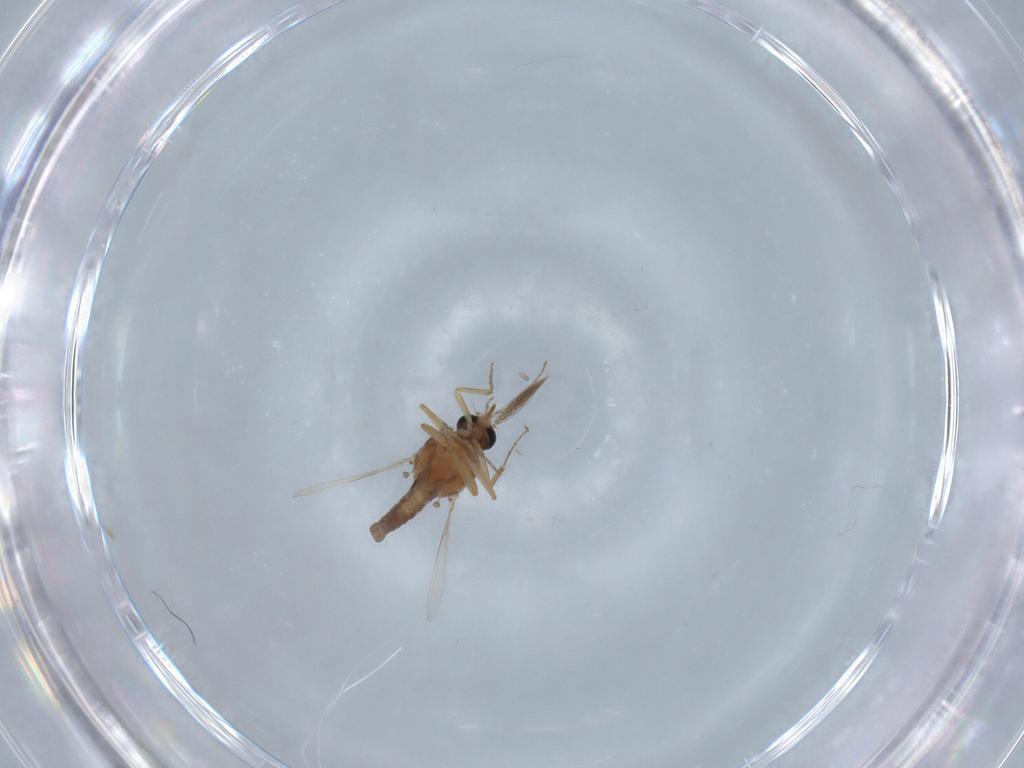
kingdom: Animalia
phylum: Arthropoda
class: Insecta
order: Diptera
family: Ceratopogonidae
